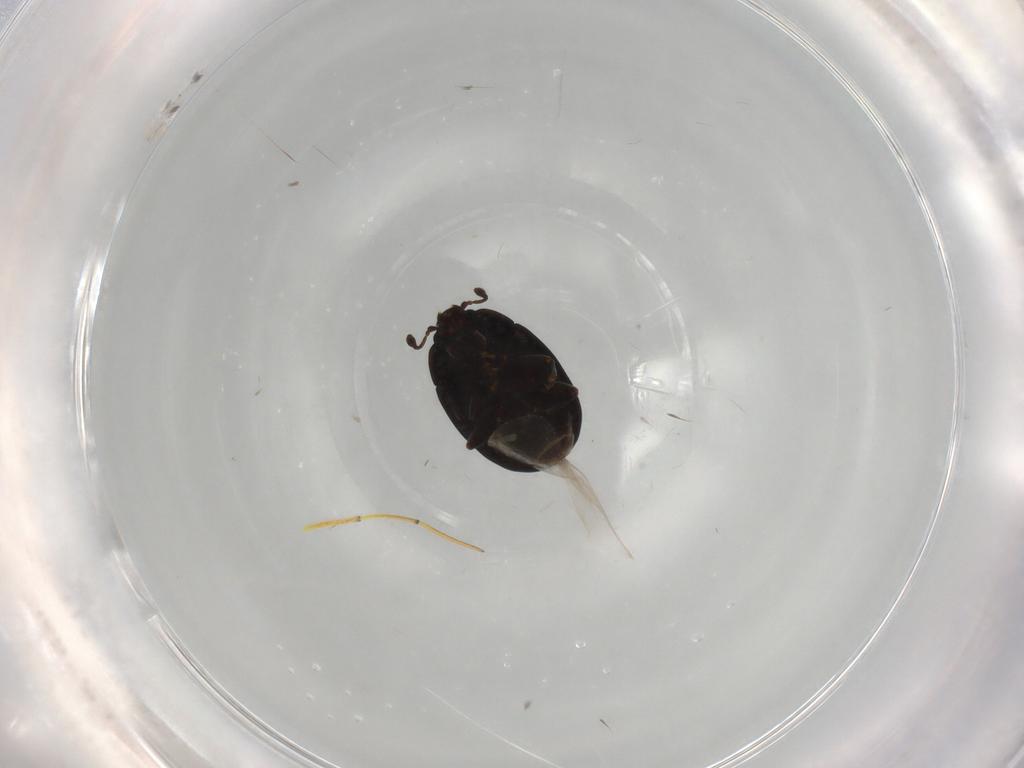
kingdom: Animalia
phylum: Arthropoda
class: Insecta
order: Coleoptera
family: Discolomatidae
